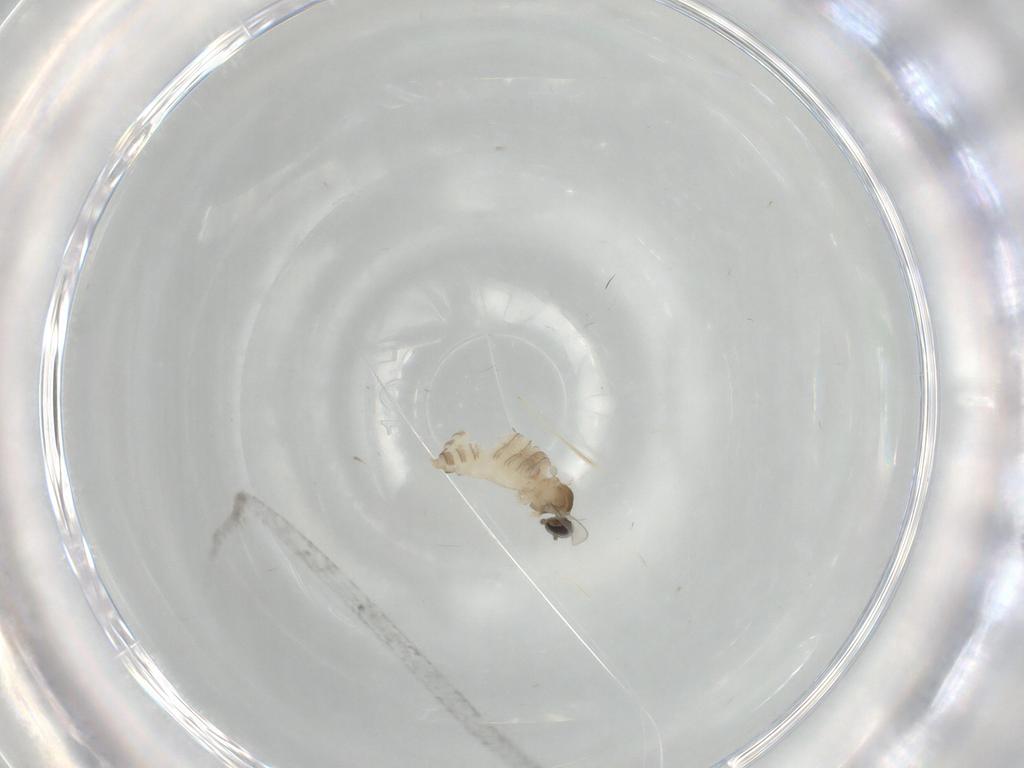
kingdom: Animalia
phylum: Arthropoda
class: Insecta
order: Diptera
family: Cecidomyiidae
